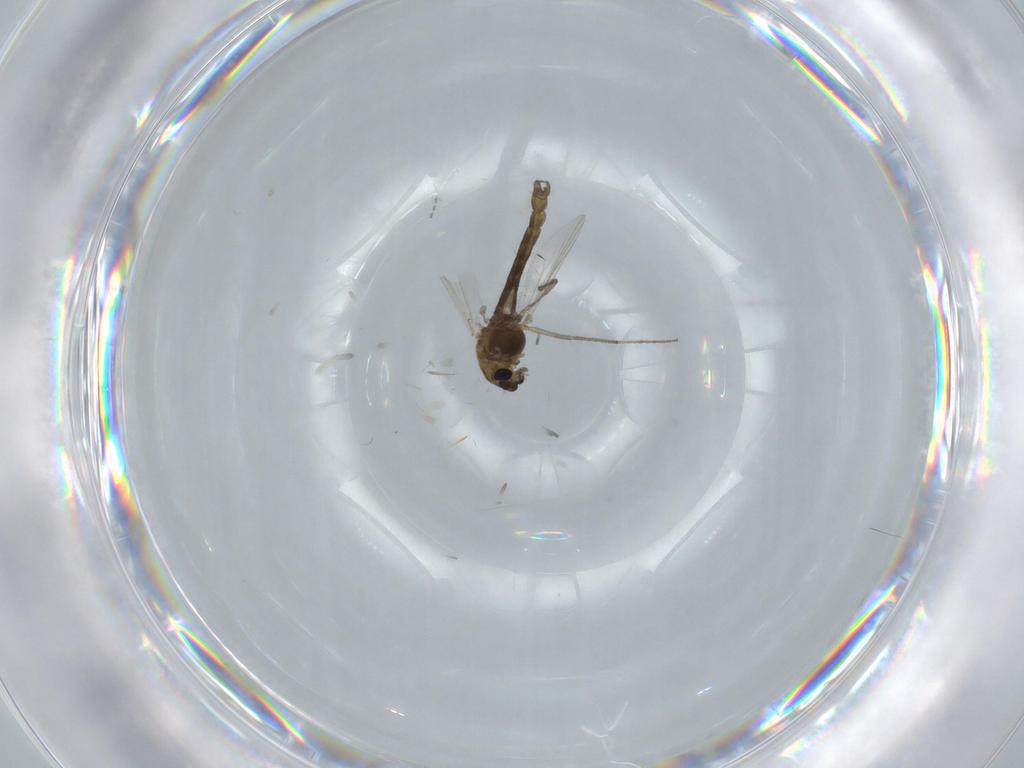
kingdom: Animalia
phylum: Arthropoda
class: Insecta
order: Diptera
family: Chironomidae
